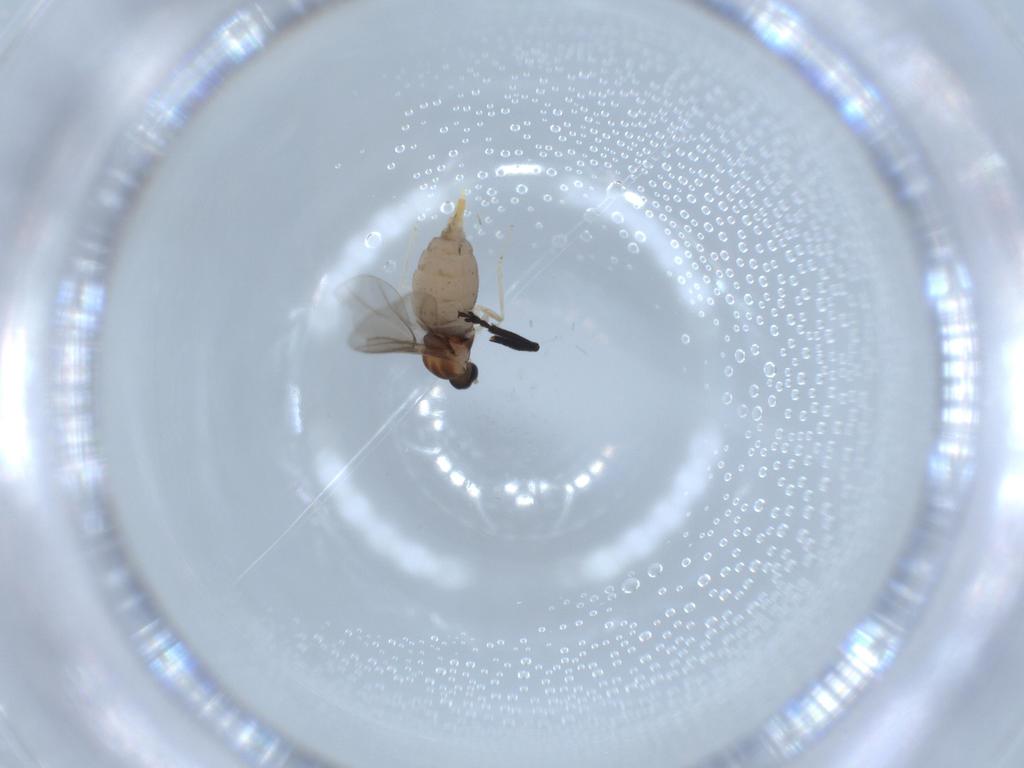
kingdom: Animalia
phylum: Arthropoda
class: Insecta
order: Diptera
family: Cecidomyiidae
